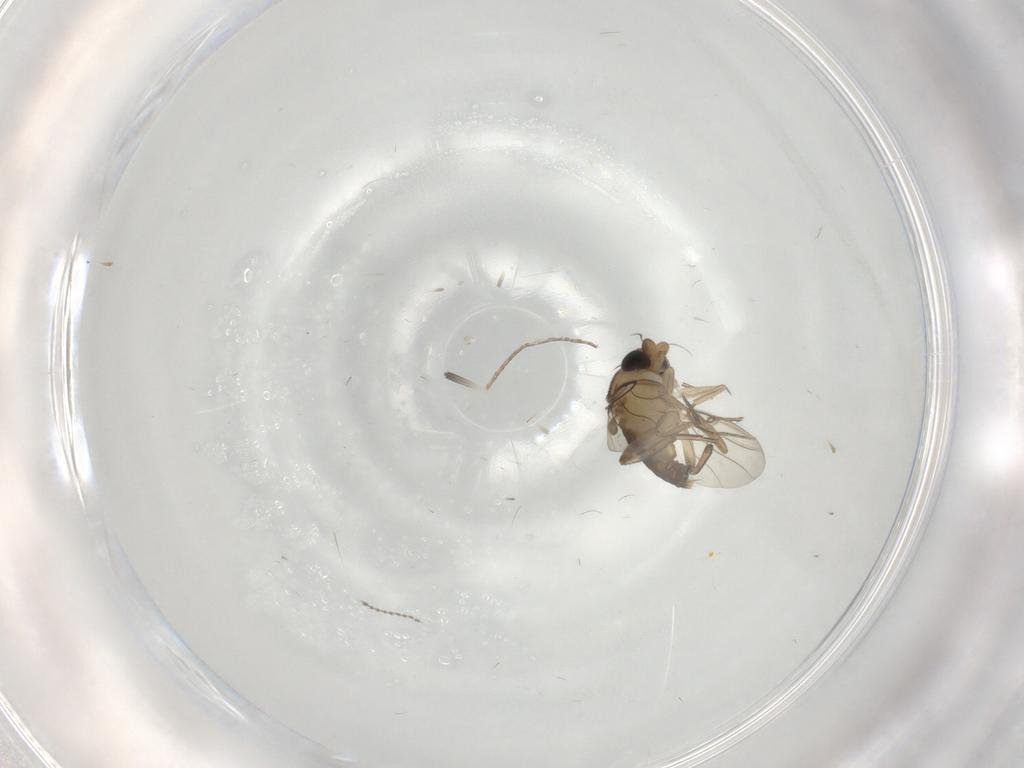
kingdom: Animalia
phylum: Arthropoda
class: Insecta
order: Diptera
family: Phoridae
